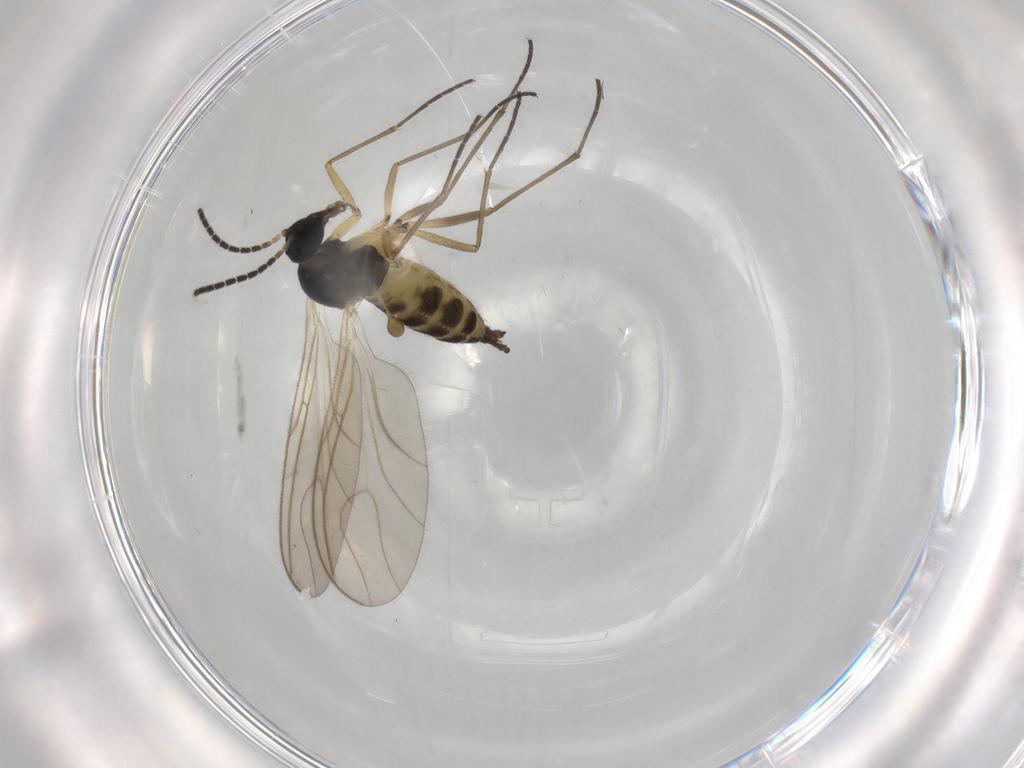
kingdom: Animalia
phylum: Arthropoda
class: Insecta
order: Diptera
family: Sciaridae
